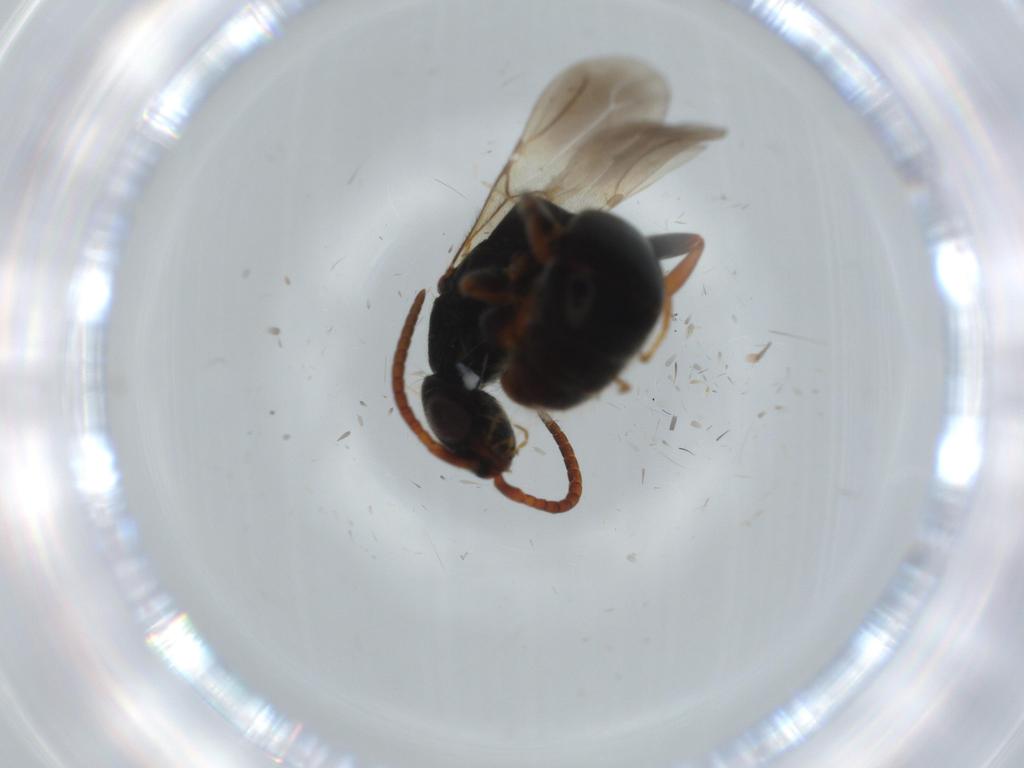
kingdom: Animalia
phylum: Arthropoda
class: Insecta
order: Hymenoptera
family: Bethylidae
